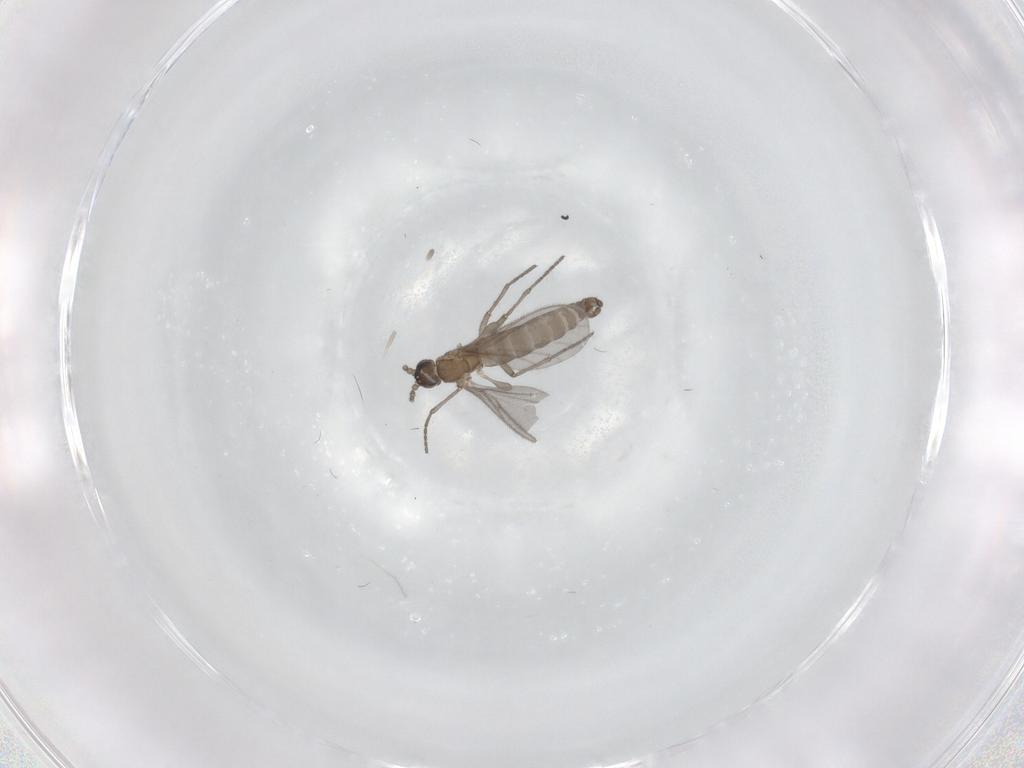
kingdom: Animalia
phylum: Arthropoda
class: Insecta
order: Diptera
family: Sciaridae
